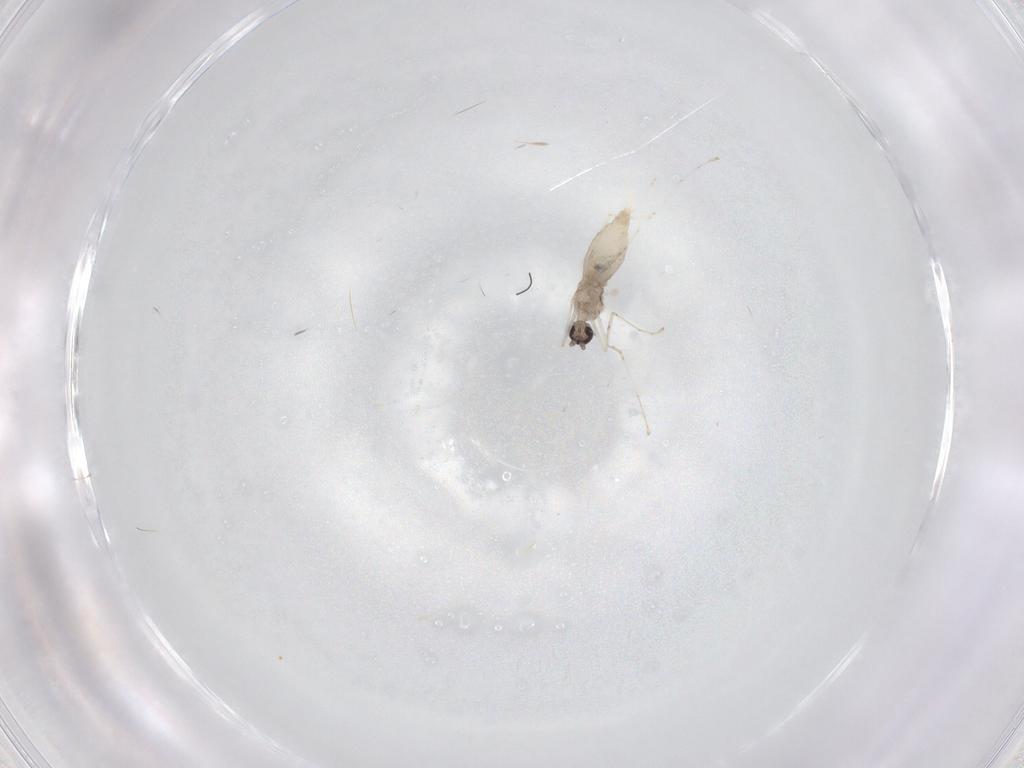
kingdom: Animalia
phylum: Arthropoda
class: Insecta
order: Diptera
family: Cecidomyiidae
